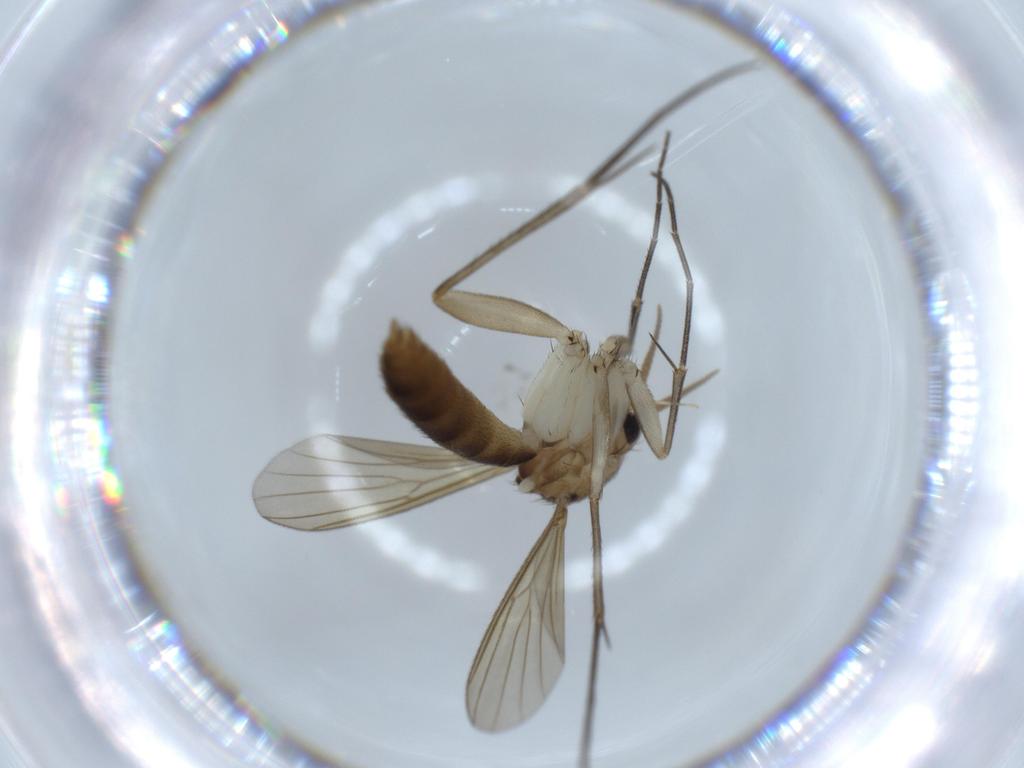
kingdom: Animalia
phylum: Arthropoda
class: Insecta
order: Diptera
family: Mycetophilidae
